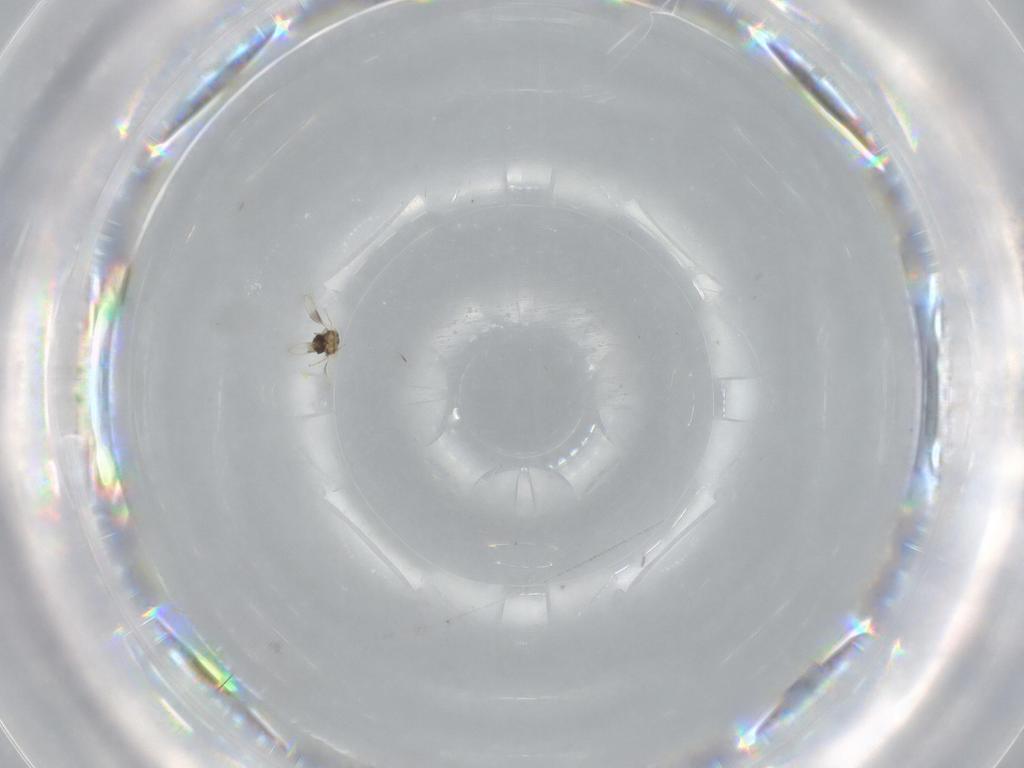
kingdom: Animalia
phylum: Arthropoda
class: Insecta
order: Hymenoptera
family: Aphelinidae
